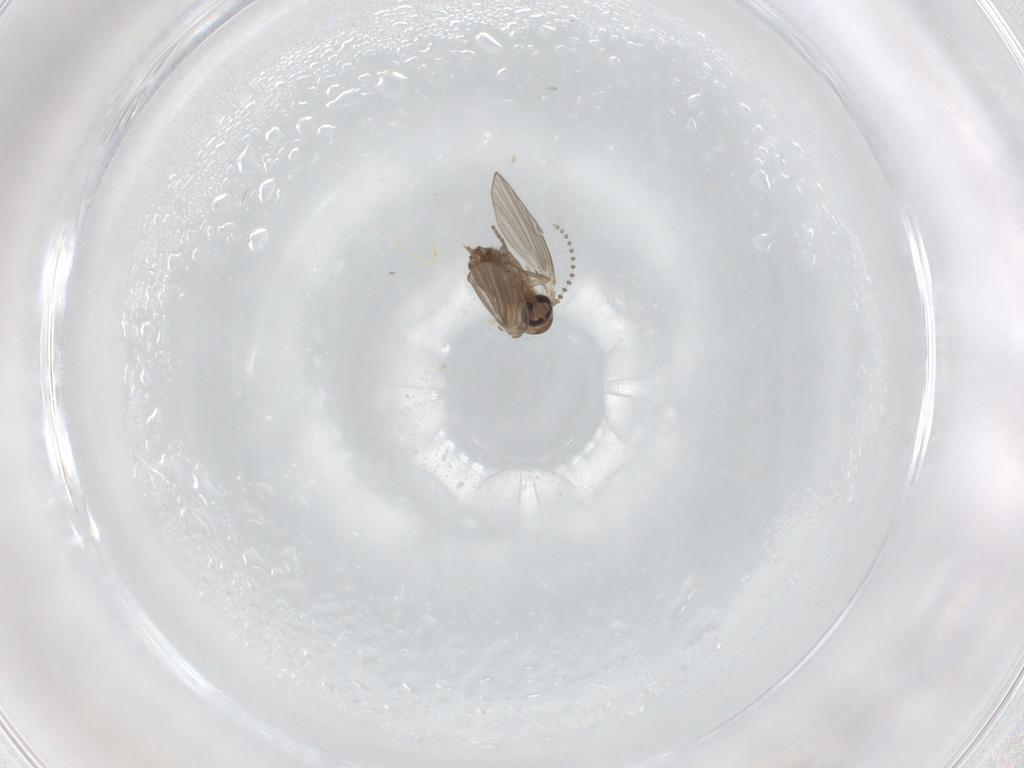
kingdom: Animalia
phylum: Arthropoda
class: Insecta
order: Diptera
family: Psychodidae
